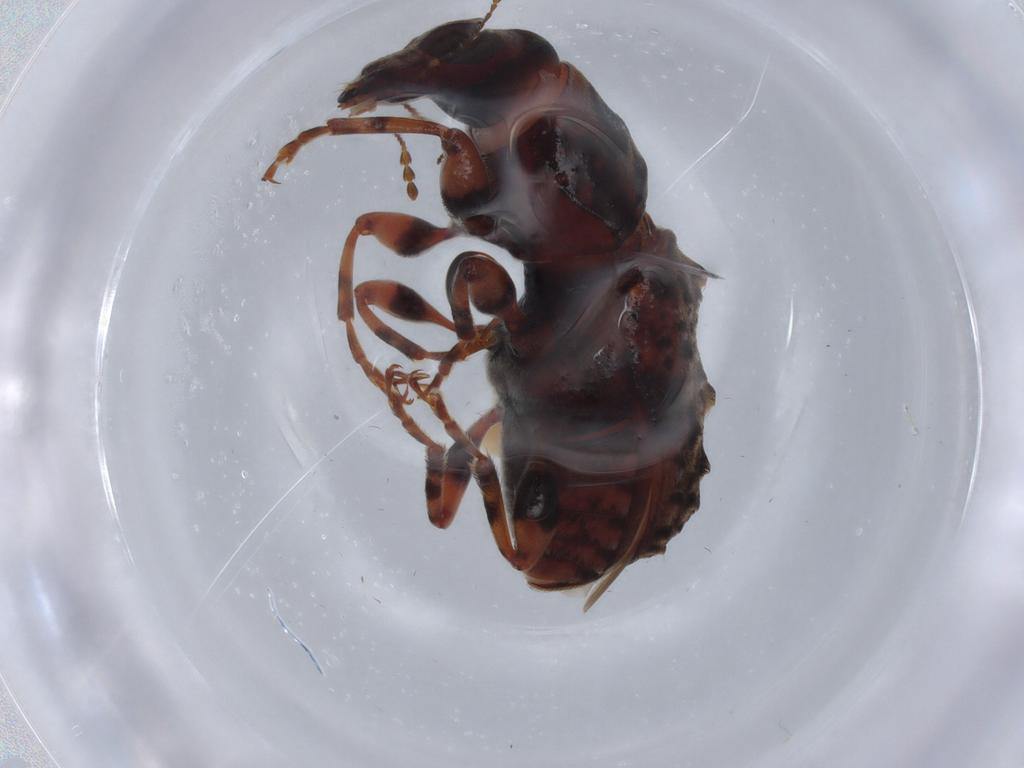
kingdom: Animalia
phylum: Arthropoda
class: Insecta
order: Coleoptera
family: Anthribidae
